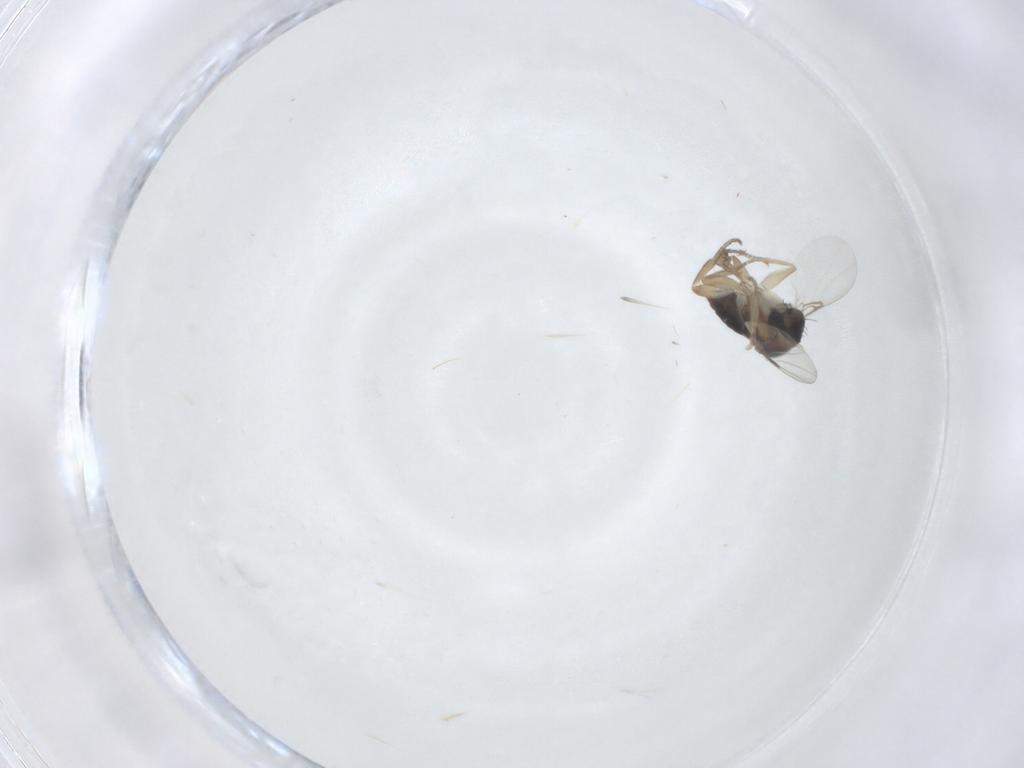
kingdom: Animalia
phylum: Arthropoda
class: Insecta
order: Diptera
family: Phoridae
